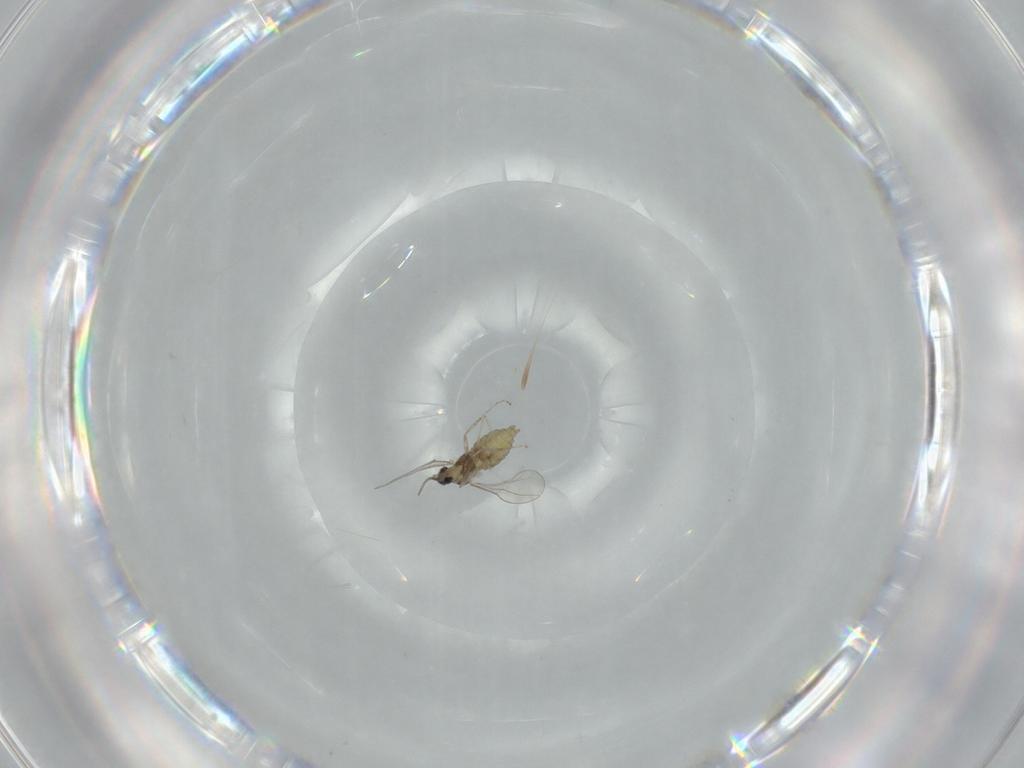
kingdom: Animalia
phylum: Arthropoda
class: Insecta
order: Diptera
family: Cecidomyiidae
